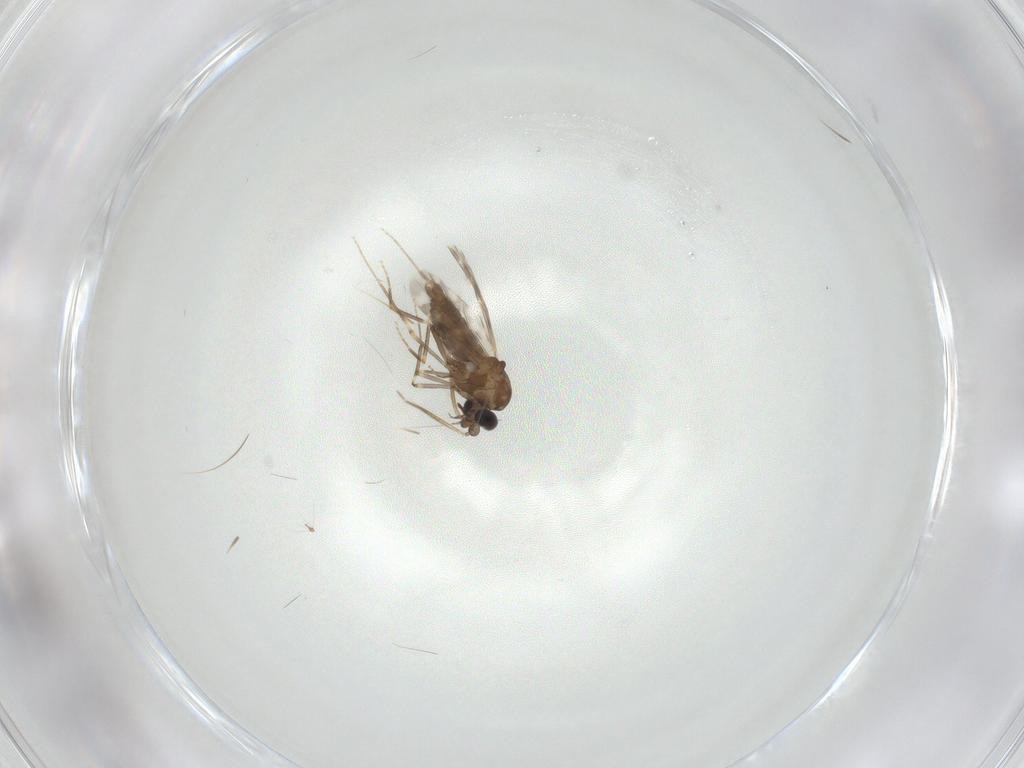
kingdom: Animalia
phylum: Arthropoda
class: Insecta
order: Diptera
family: Ceratopogonidae
